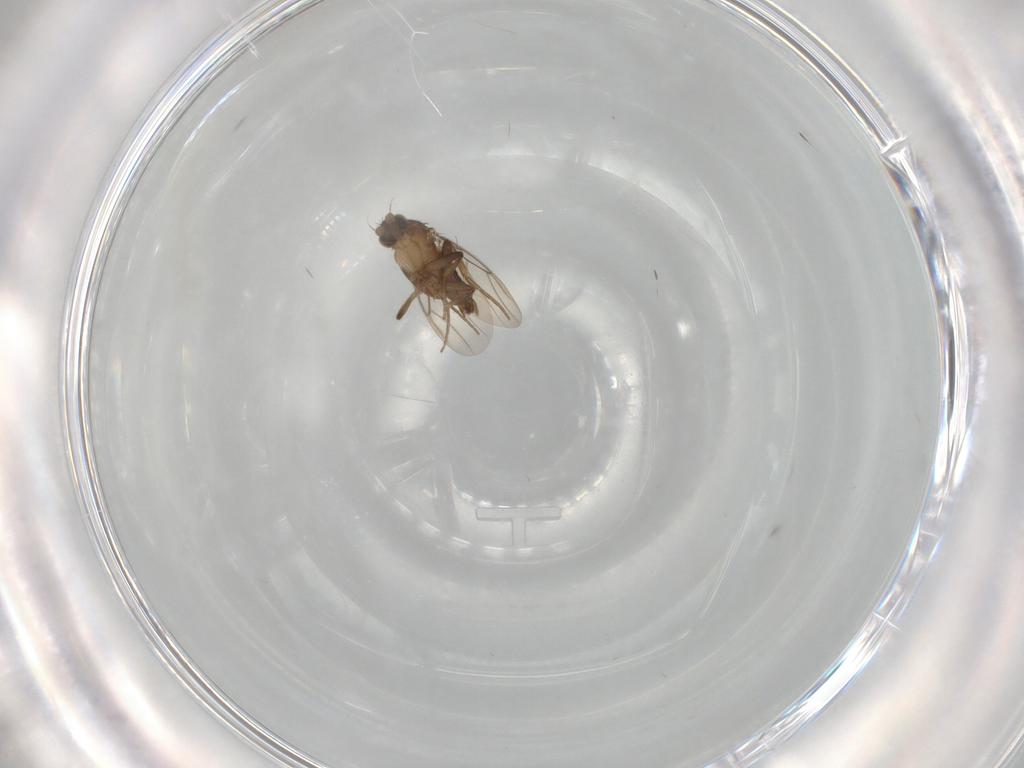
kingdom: Animalia
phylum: Arthropoda
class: Insecta
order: Diptera
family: Phoridae
